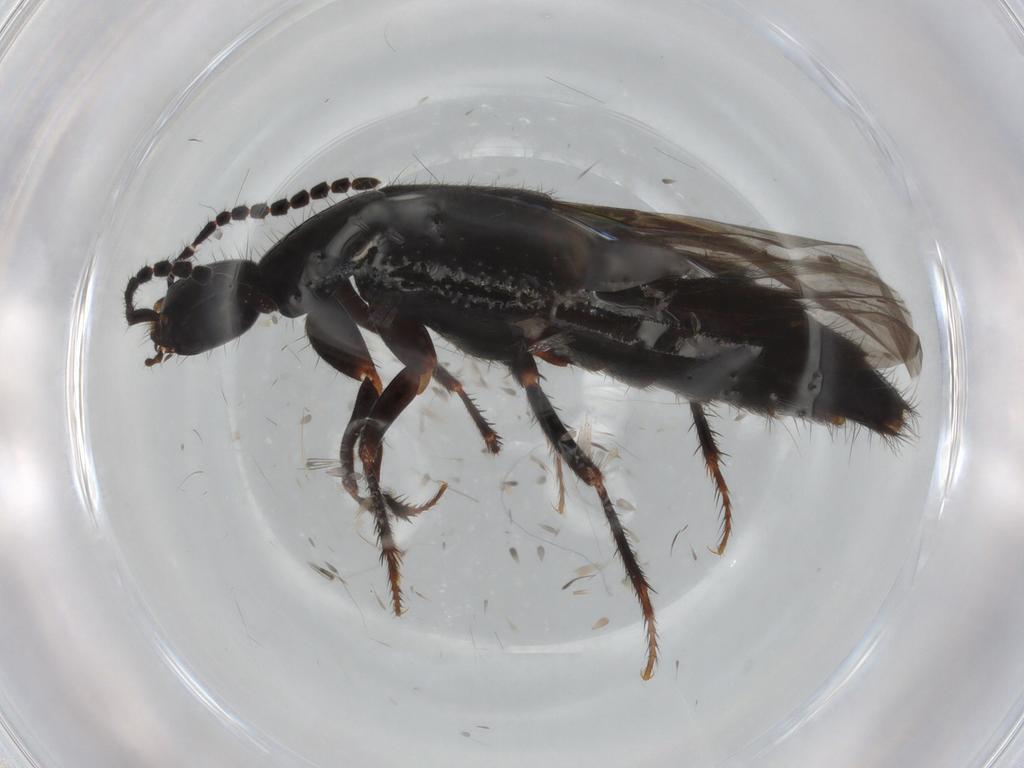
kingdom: Animalia
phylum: Arthropoda
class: Insecta
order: Coleoptera
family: Staphylinidae
